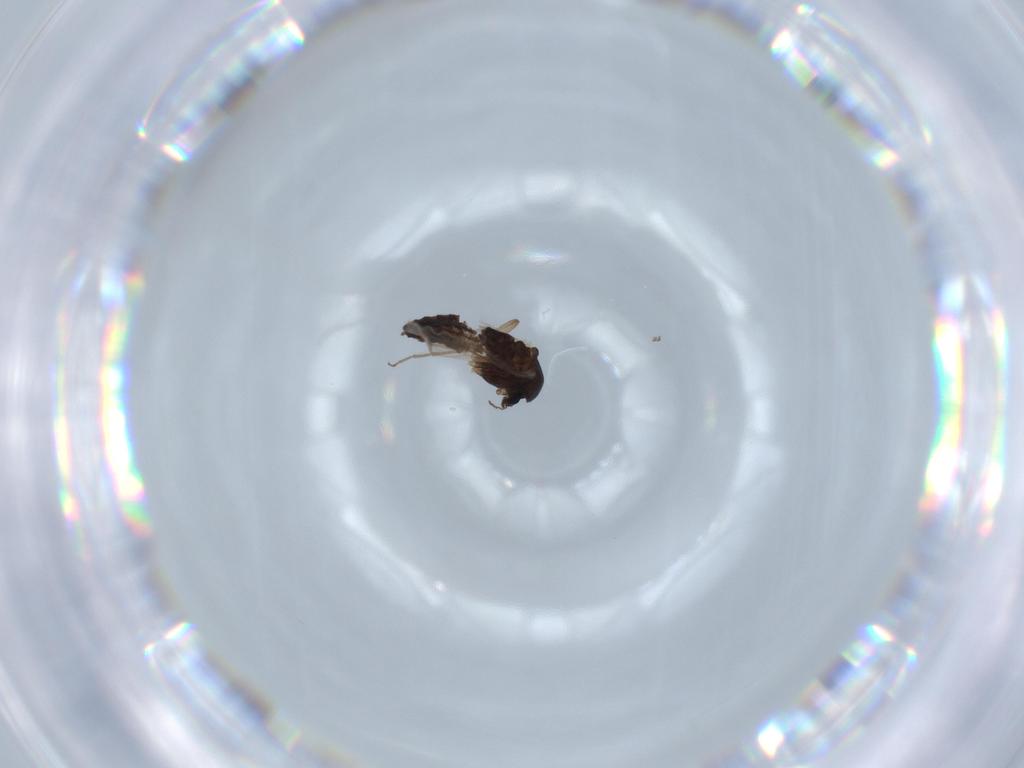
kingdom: Animalia
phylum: Arthropoda
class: Insecta
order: Diptera
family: Chironomidae
